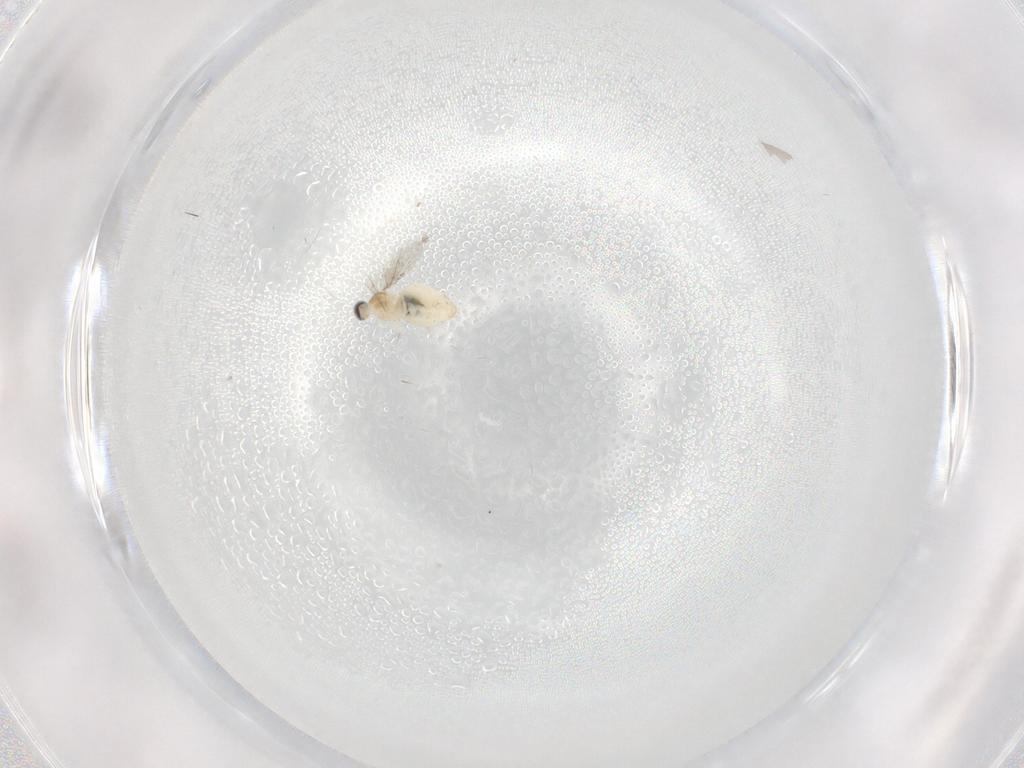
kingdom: Animalia
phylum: Arthropoda
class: Insecta
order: Diptera
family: Cecidomyiidae
